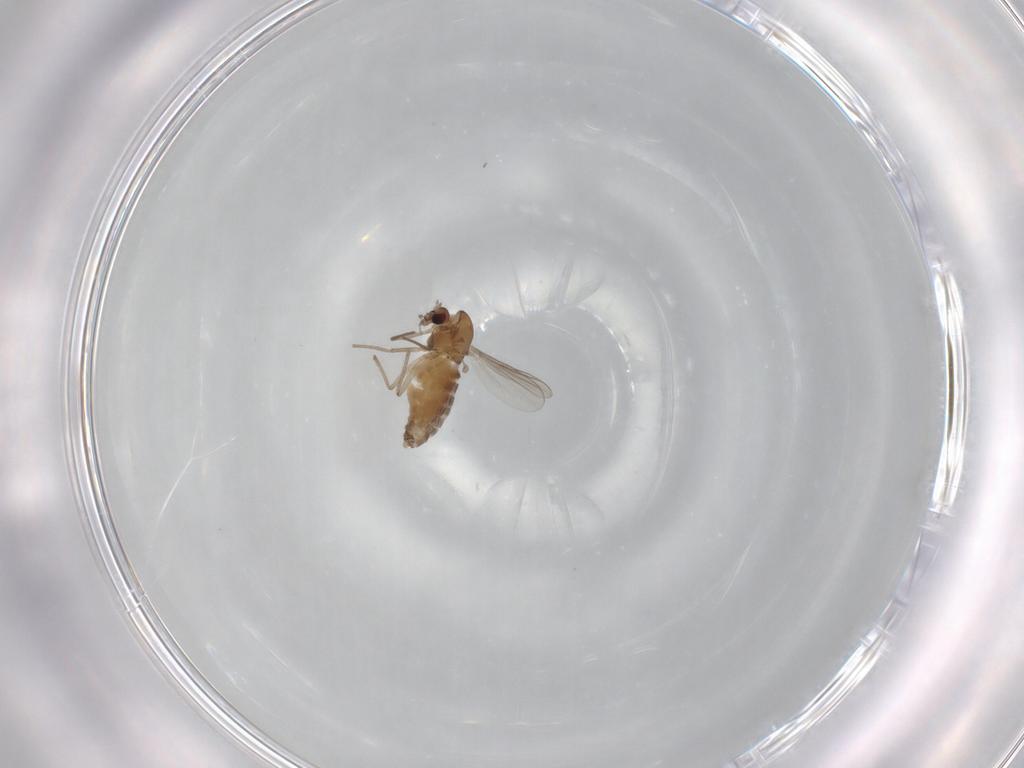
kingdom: Animalia
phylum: Arthropoda
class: Insecta
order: Diptera
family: Chironomidae
